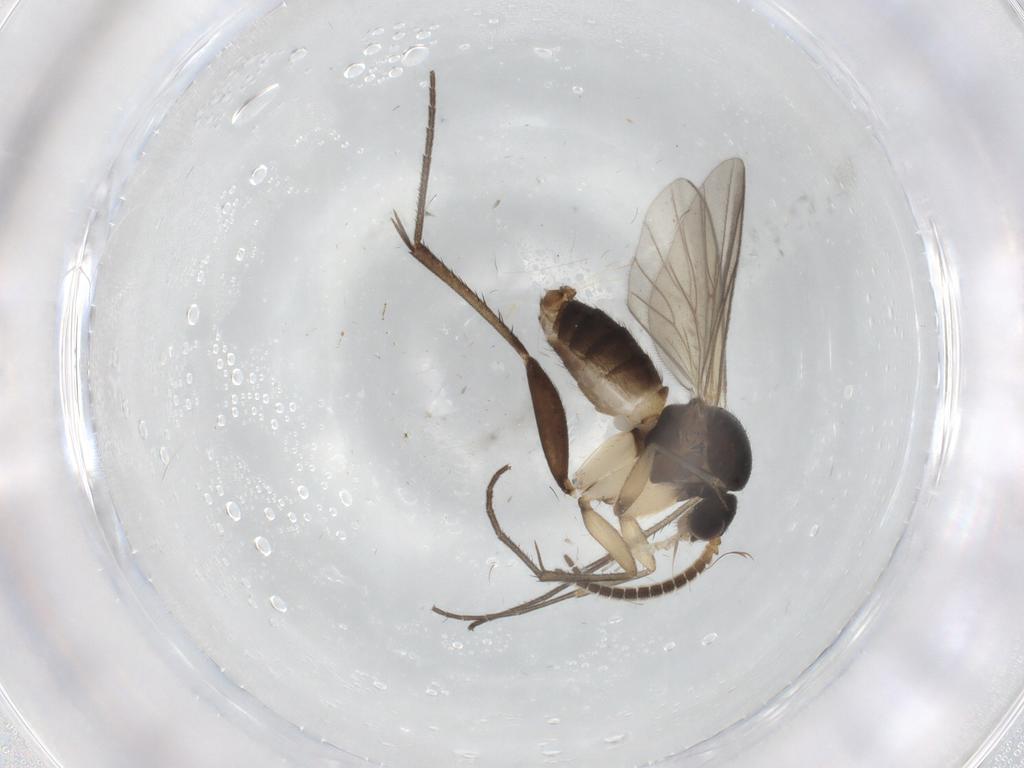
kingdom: Animalia
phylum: Arthropoda
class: Insecta
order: Diptera
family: Mycetophilidae
